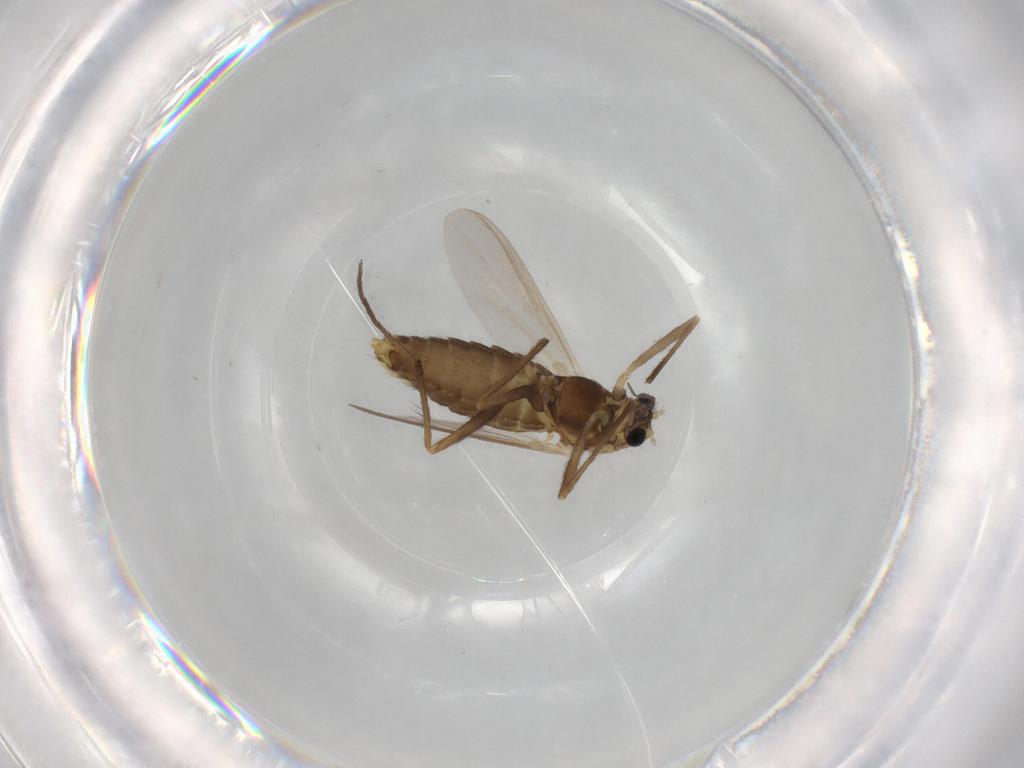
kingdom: Animalia
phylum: Arthropoda
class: Insecta
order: Diptera
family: Chironomidae
